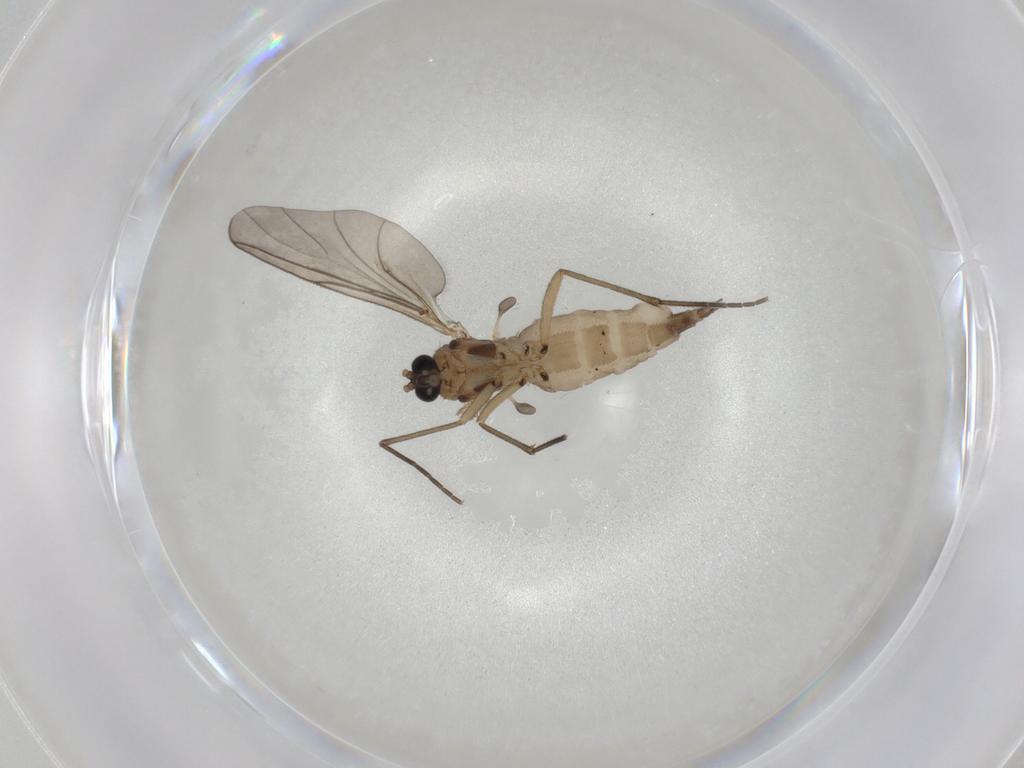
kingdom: Animalia
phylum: Arthropoda
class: Insecta
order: Diptera
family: Sciaridae
